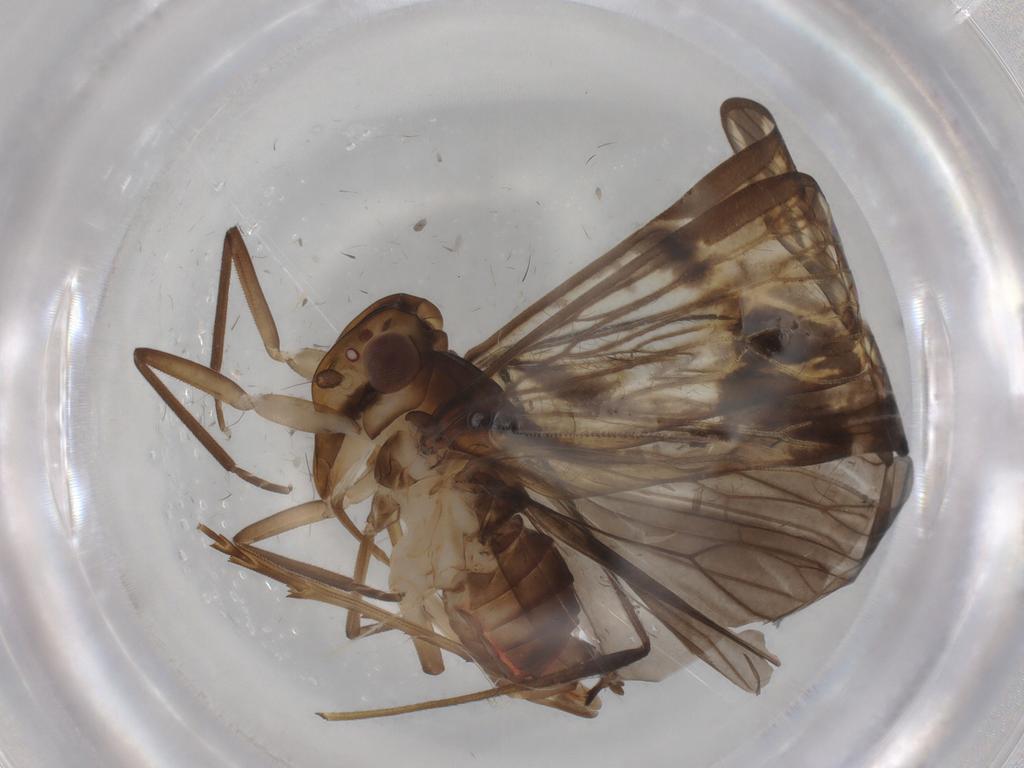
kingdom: Animalia
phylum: Arthropoda
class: Insecta
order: Hemiptera
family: Cixiidae
